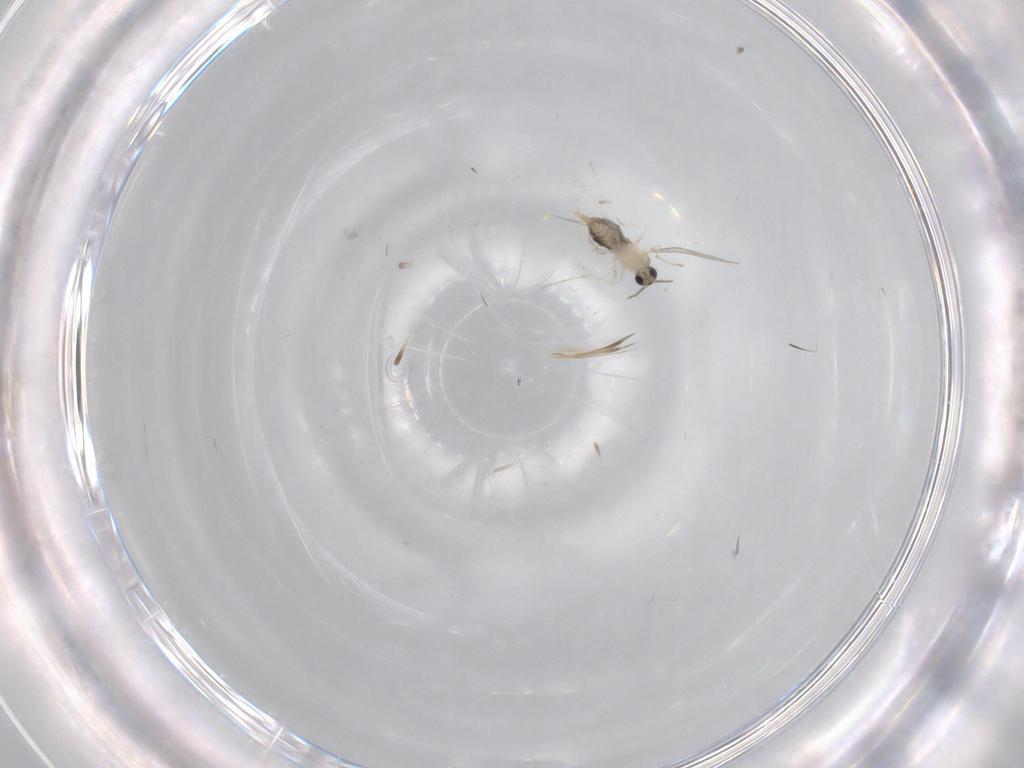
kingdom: Animalia
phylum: Arthropoda
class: Insecta
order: Diptera
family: Cecidomyiidae
